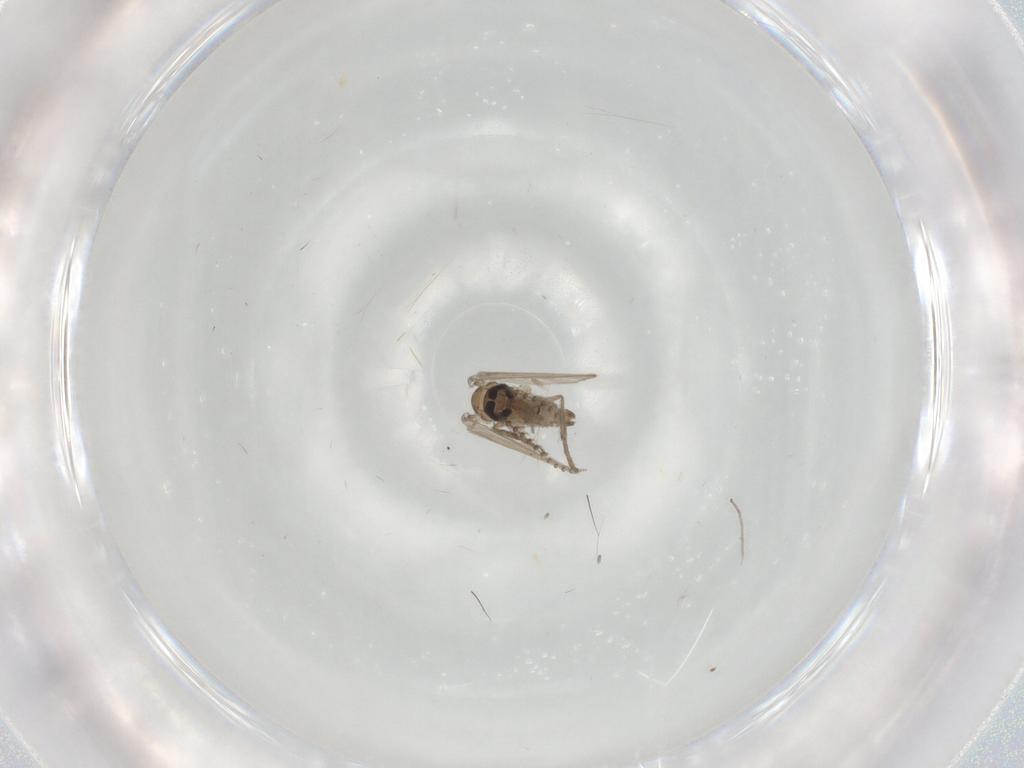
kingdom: Animalia
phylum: Arthropoda
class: Insecta
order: Diptera
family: Psychodidae
